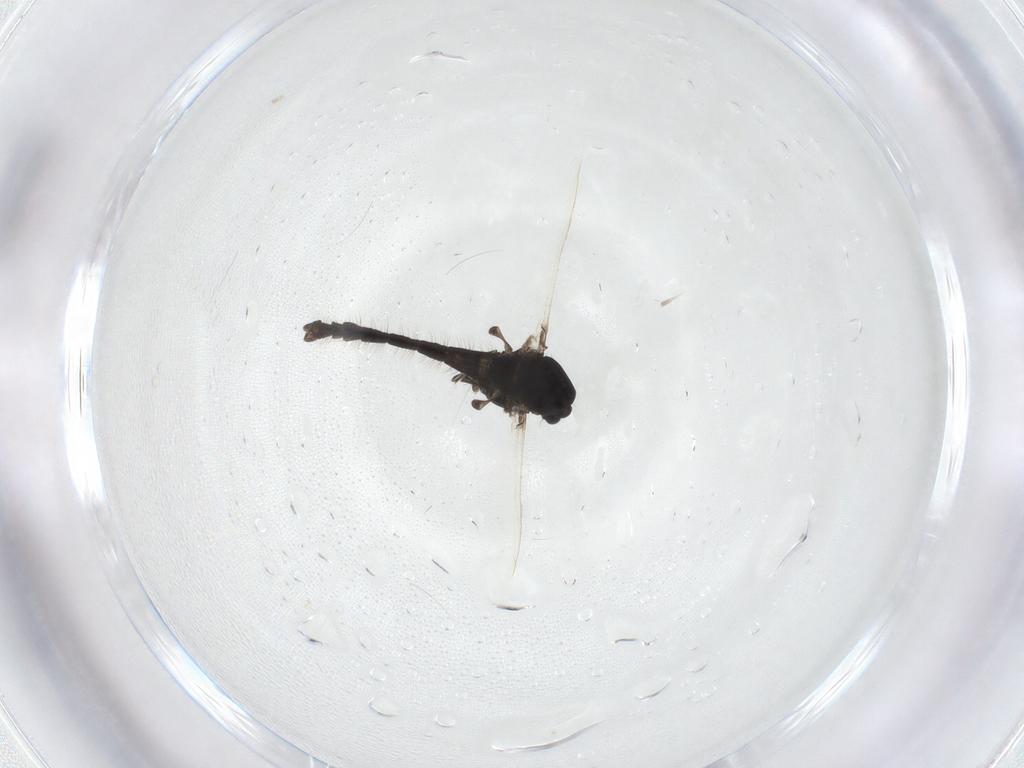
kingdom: Animalia
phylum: Arthropoda
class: Insecta
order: Diptera
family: Chironomidae
